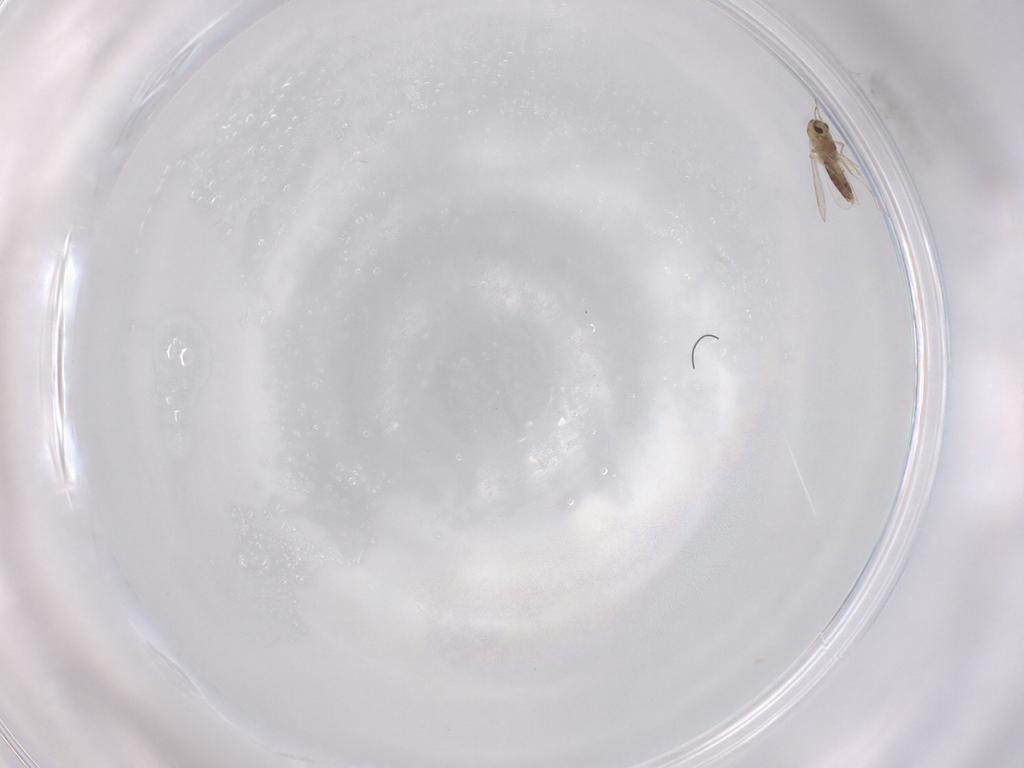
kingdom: Animalia
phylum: Arthropoda
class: Insecta
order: Diptera
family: Chironomidae
